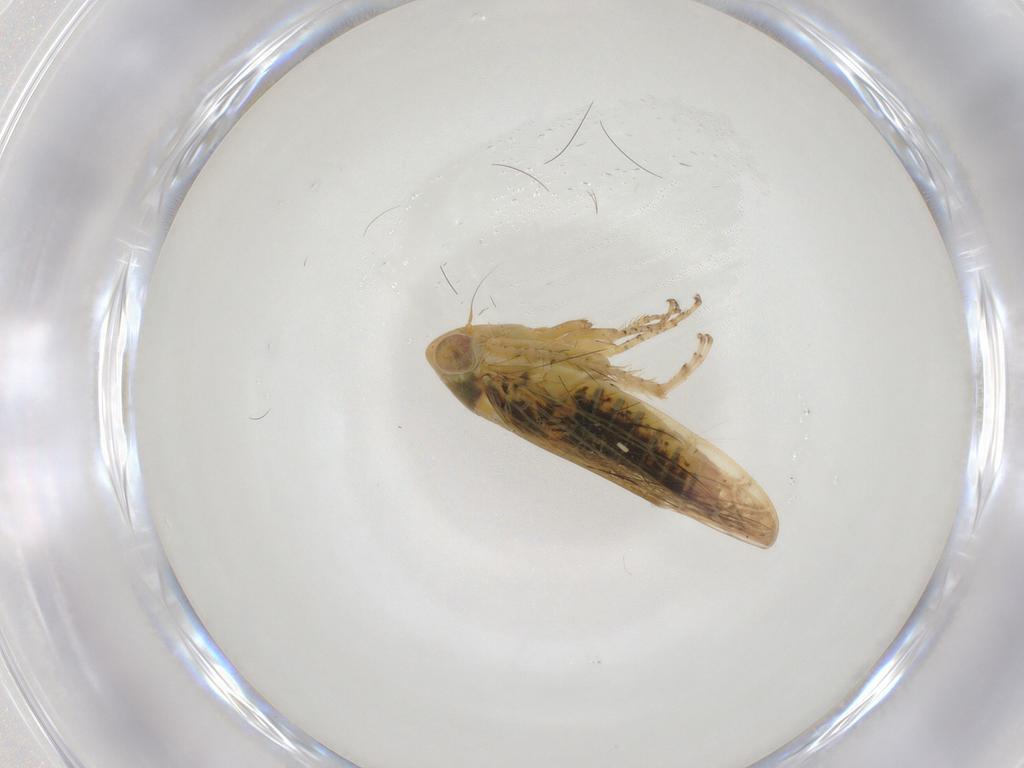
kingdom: Animalia
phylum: Arthropoda
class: Insecta
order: Hemiptera
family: Cicadellidae
